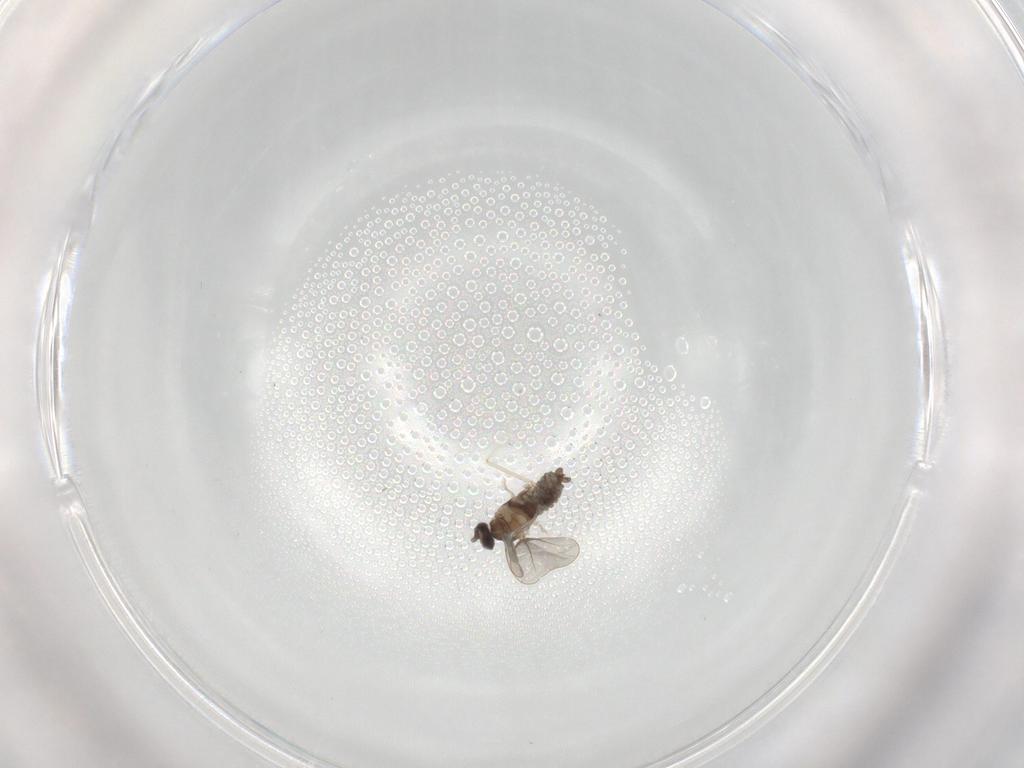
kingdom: Animalia
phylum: Arthropoda
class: Insecta
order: Diptera
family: Cecidomyiidae
